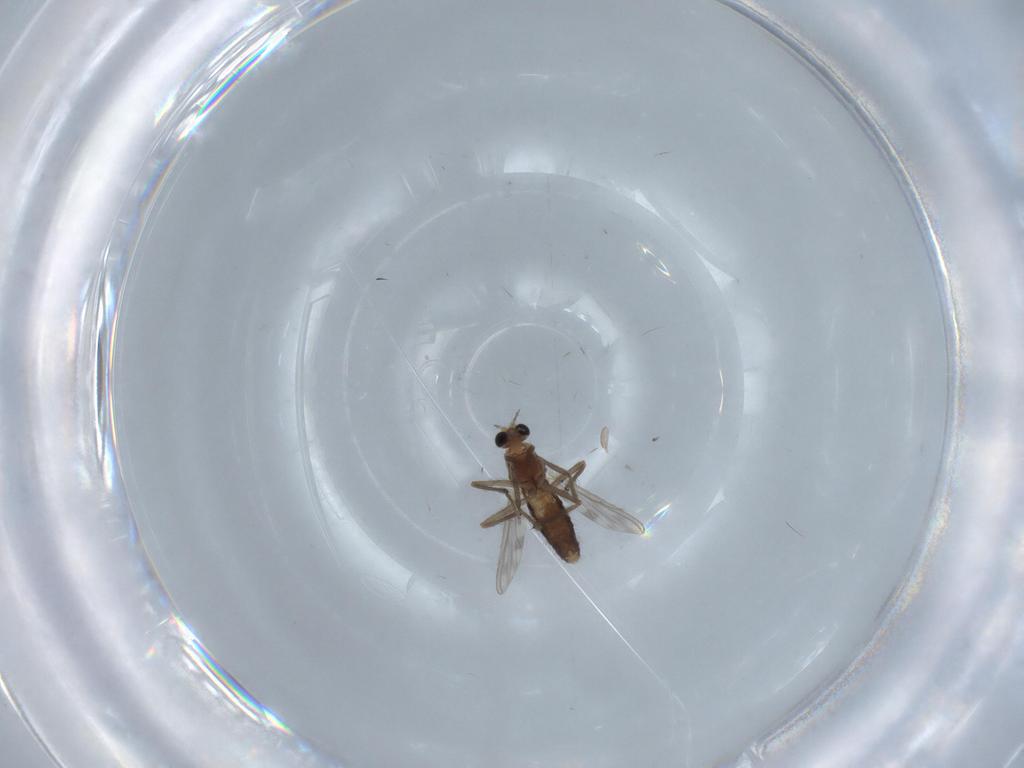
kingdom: Animalia
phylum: Arthropoda
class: Insecta
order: Diptera
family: Chironomidae
